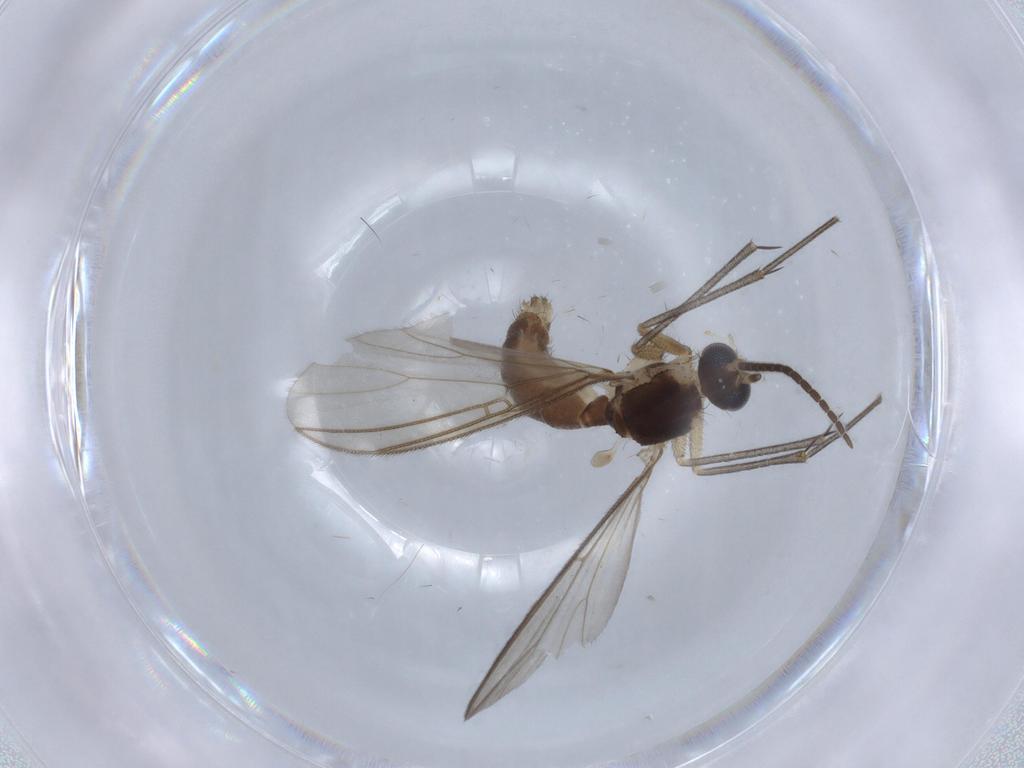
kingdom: Animalia
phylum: Arthropoda
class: Insecta
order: Diptera
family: Mycetophilidae
